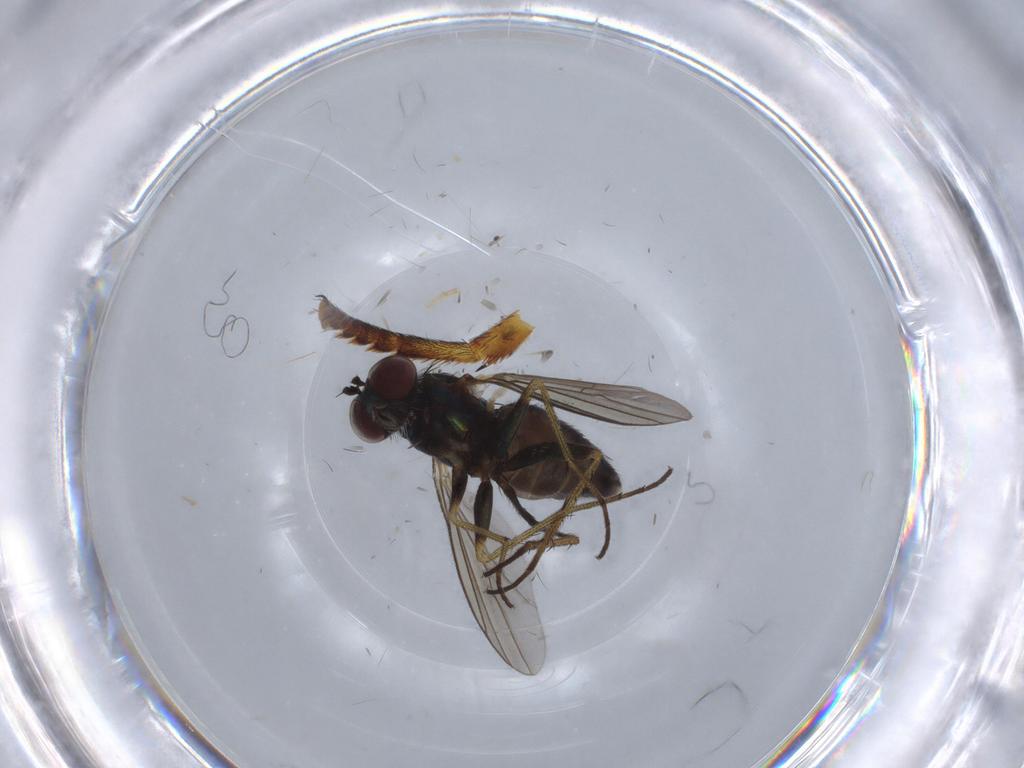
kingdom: Animalia
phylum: Arthropoda
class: Insecta
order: Diptera
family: Dolichopodidae
